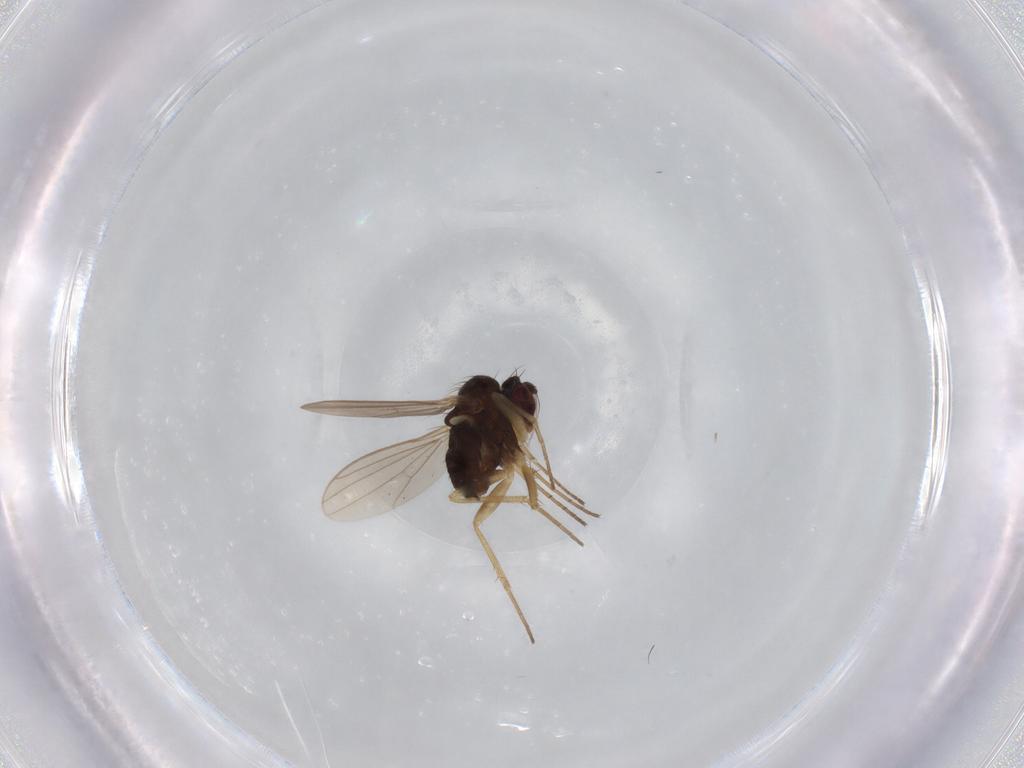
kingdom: Animalia
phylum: Arthropoda
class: Insecta
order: Diptera
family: Dolichopodidae
